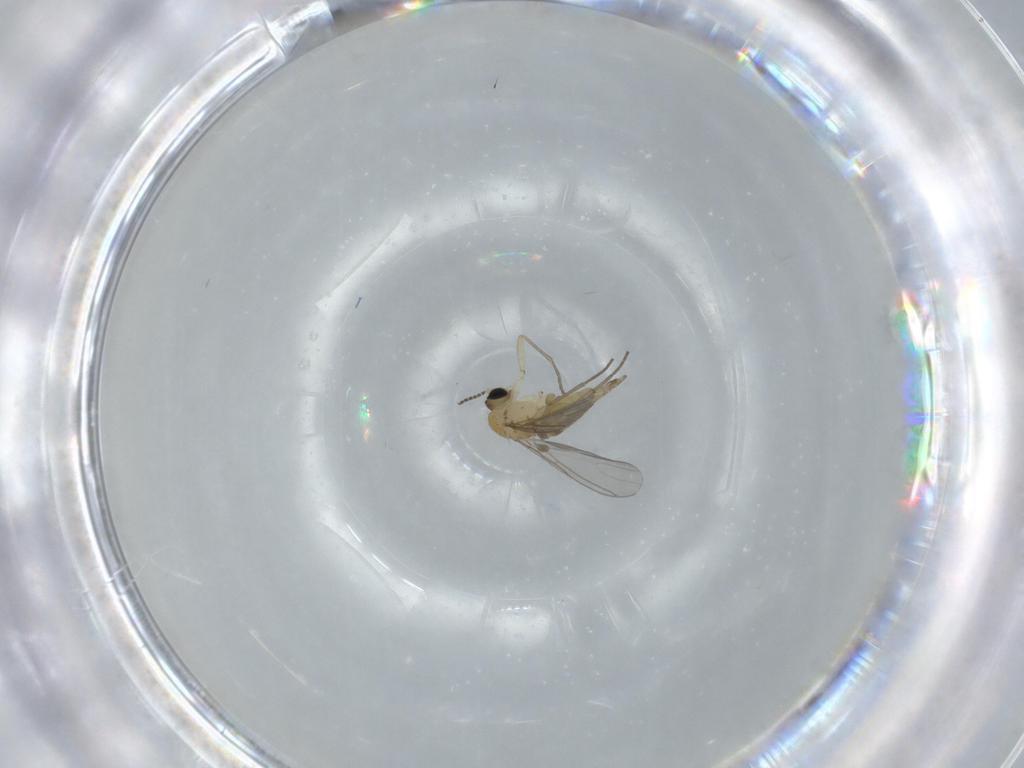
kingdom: Animalia
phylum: Arthropoda
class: Insecta
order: Diptera
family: Sciaridae
